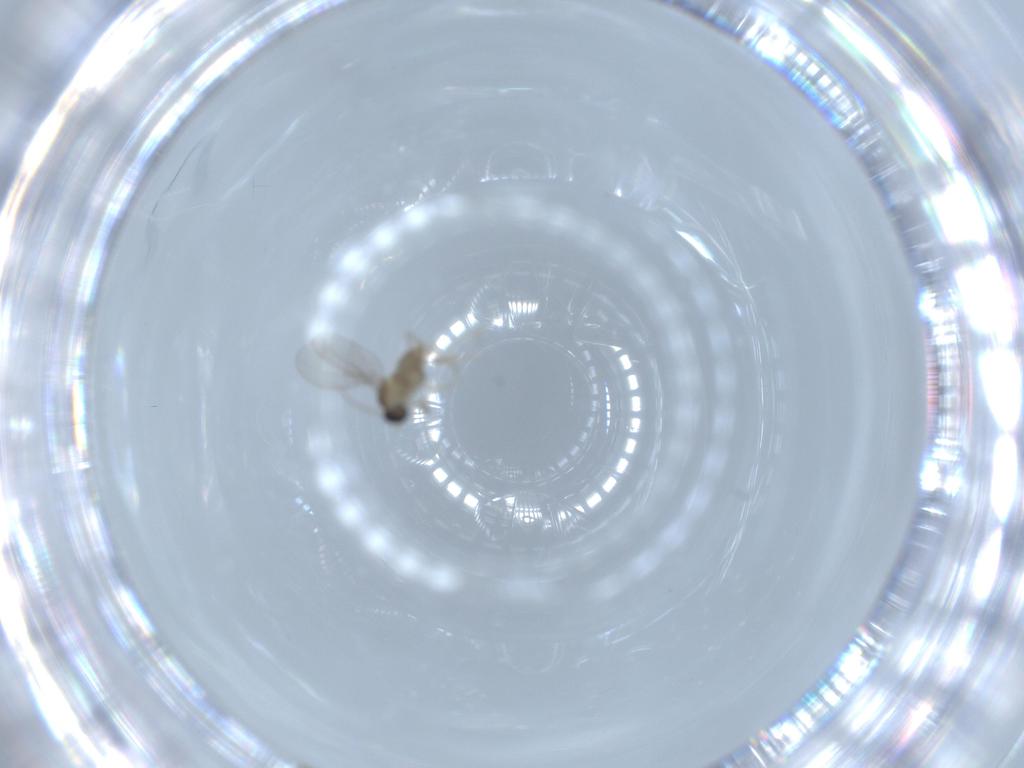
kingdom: Animalia
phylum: Arthropoda
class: Insecta
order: Diptera
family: Cecidomyiidae
